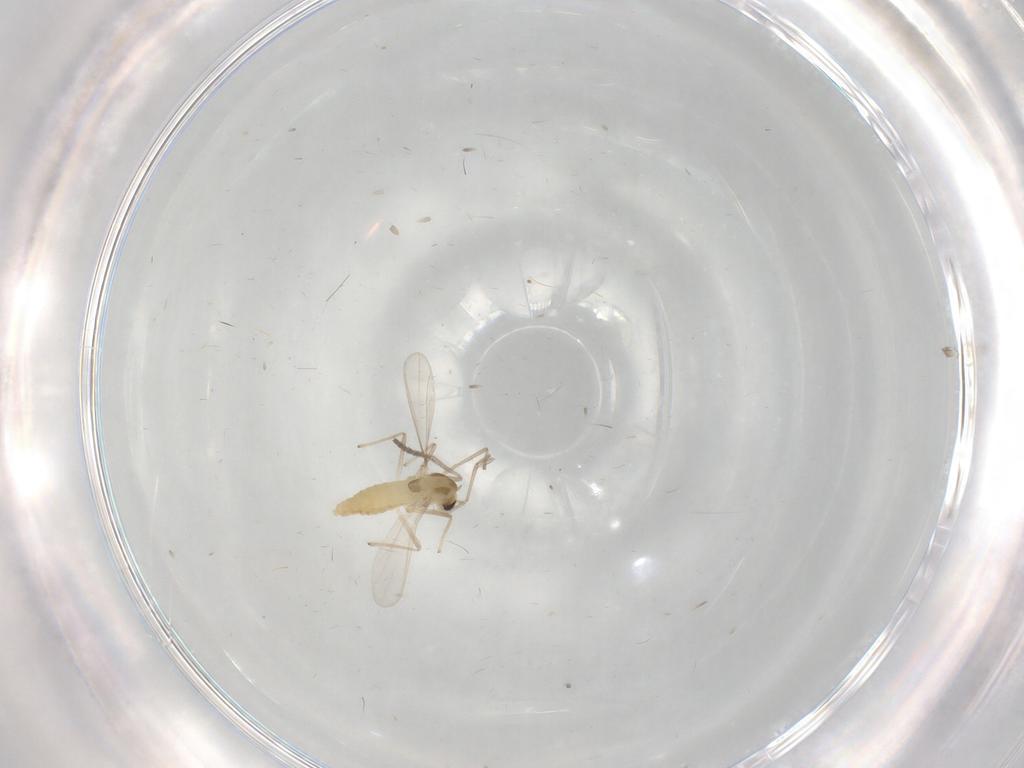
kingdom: Animalia
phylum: Arthropoda
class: Insecta
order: Diptera
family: Chironomidae
